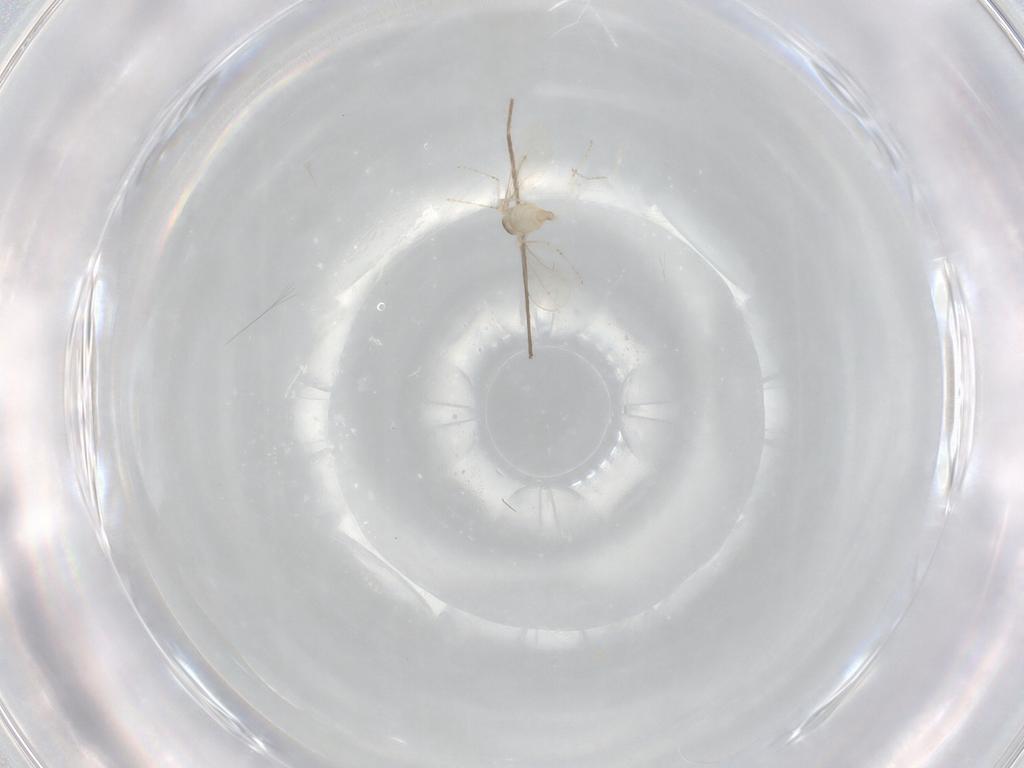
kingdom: Animalia
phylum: Arthropoda
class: Insecta
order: Diptera
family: Cecidomyiidae
